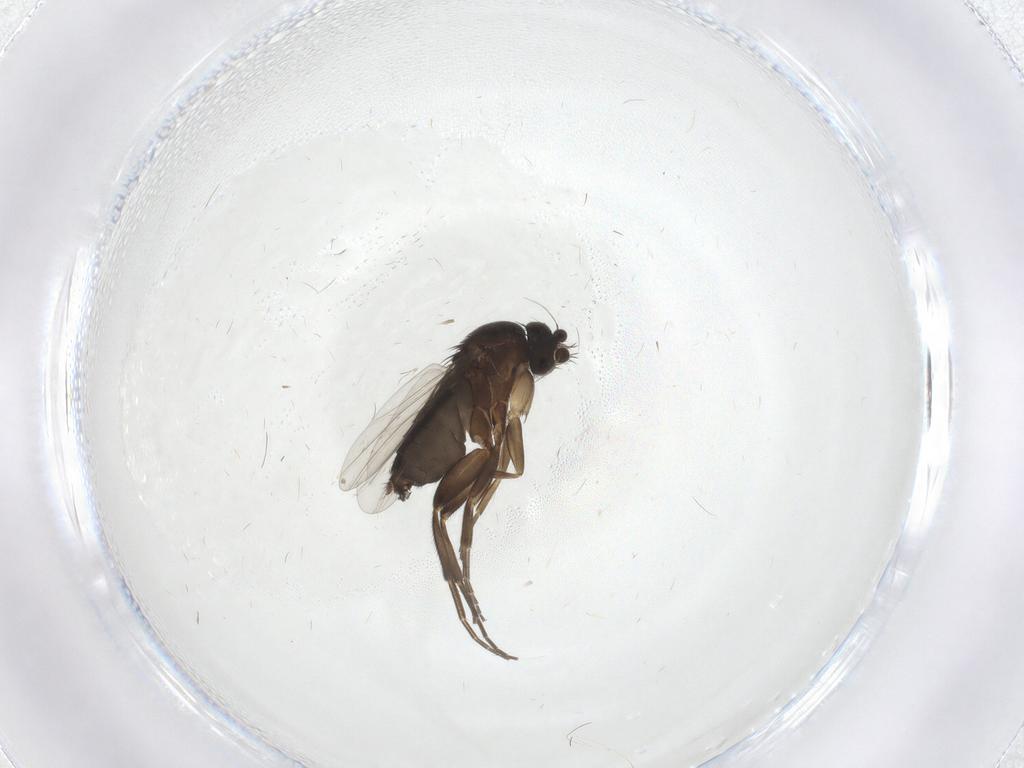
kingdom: Animalia
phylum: Arthropoda
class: Insecta
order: Diptera
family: Phoridae
